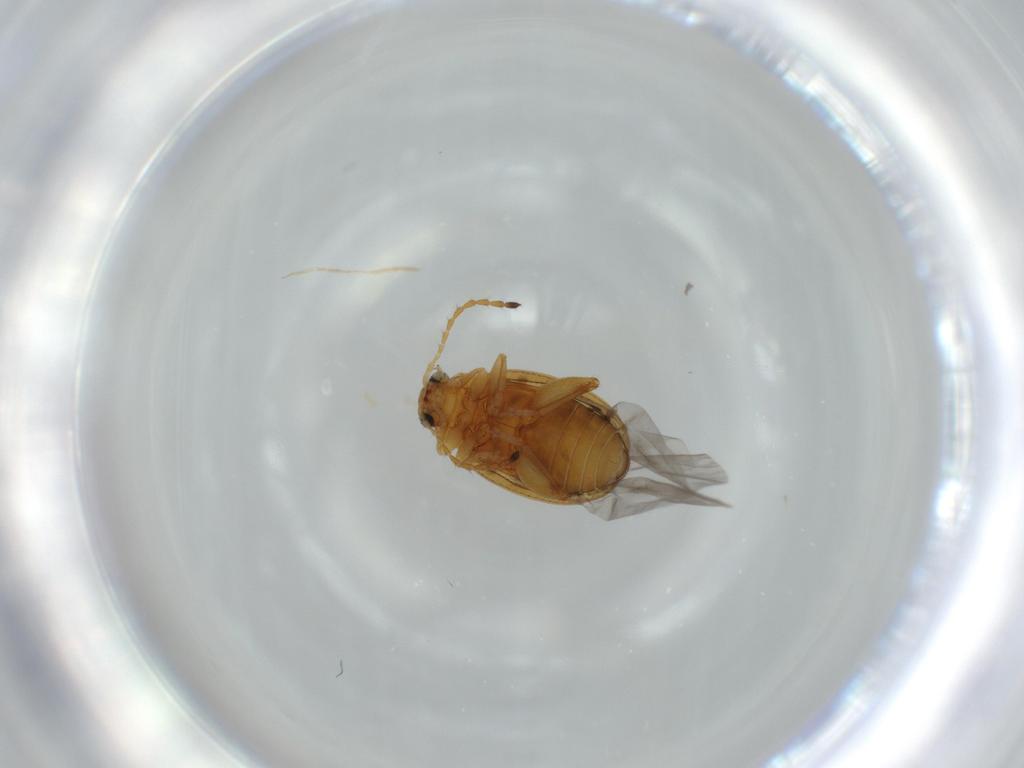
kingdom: Animalia
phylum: Arthropoda
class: Insecta
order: Coleoptera
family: Chrysomelidae
